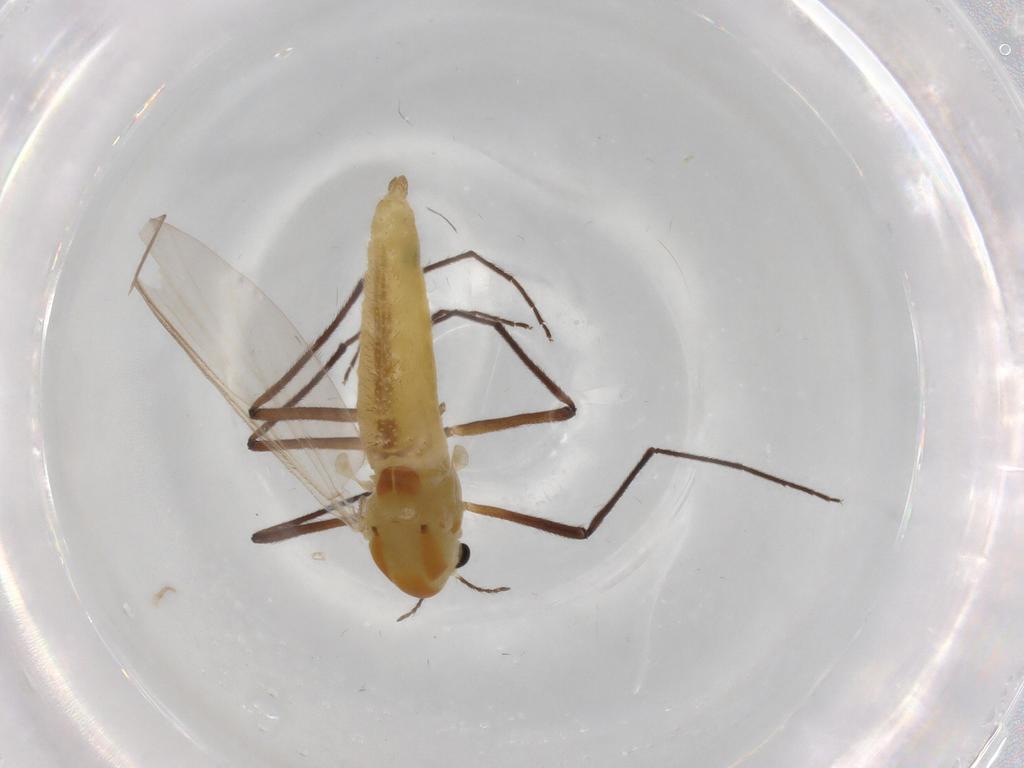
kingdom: Animalia
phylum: Arthropoda
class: Insecta
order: Diptera
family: Chironomidae
